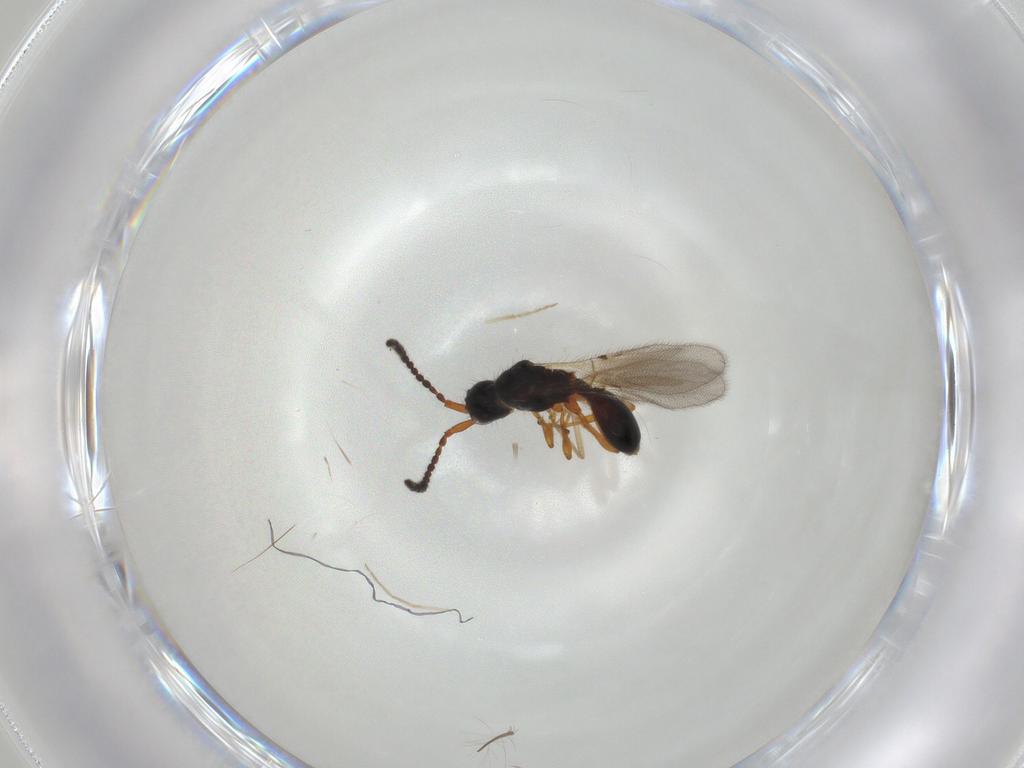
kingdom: Animalia
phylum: Arthropoda
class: Insecta
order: Hymenoptera
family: Diapriidae
